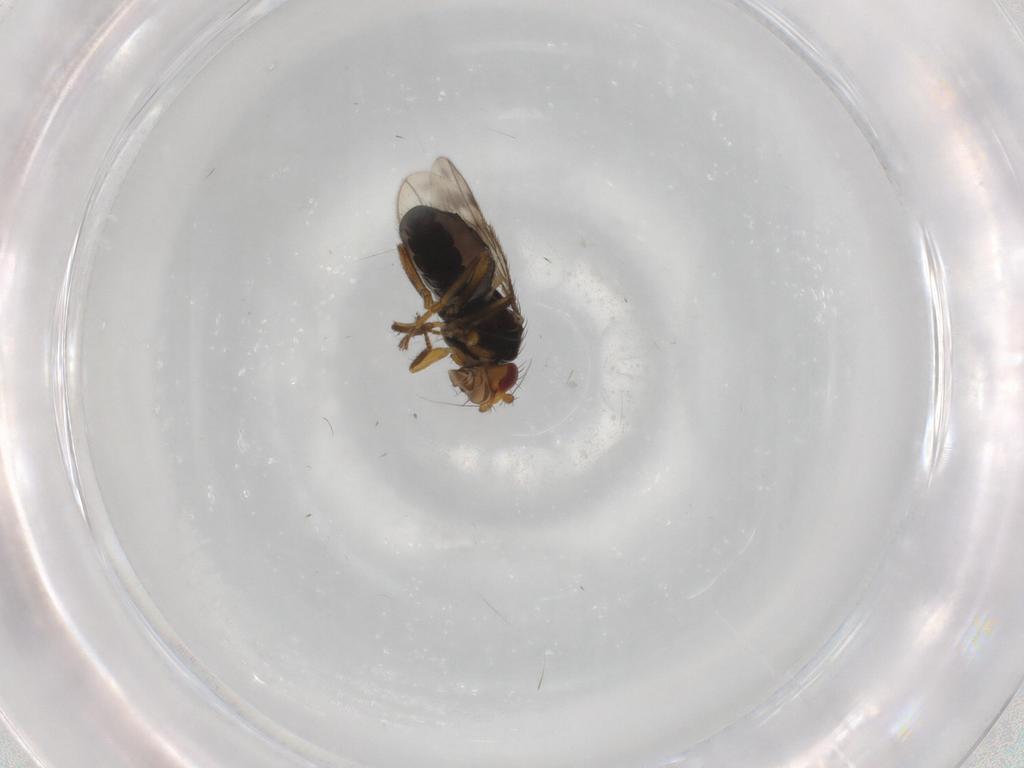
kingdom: Animalia
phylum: Arthropoda
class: Insecta
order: Diptera
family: Sphaeroceridae
